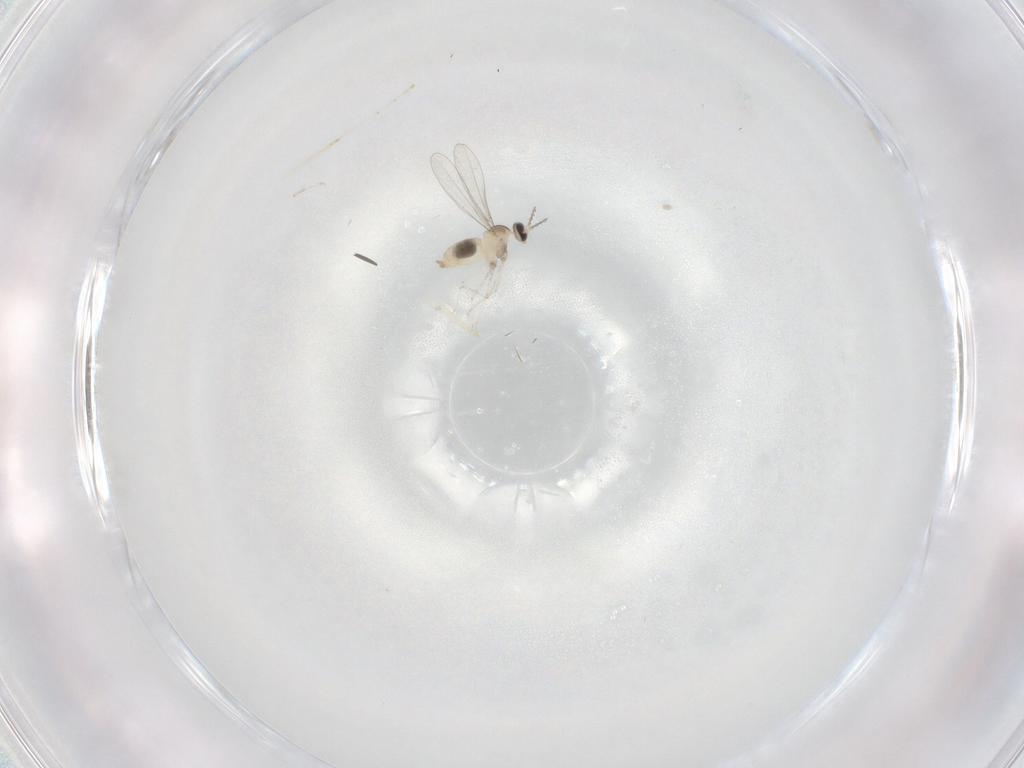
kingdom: Animalia
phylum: Arthropoda
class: Insecta
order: Diptera
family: Cecidomyiidae
